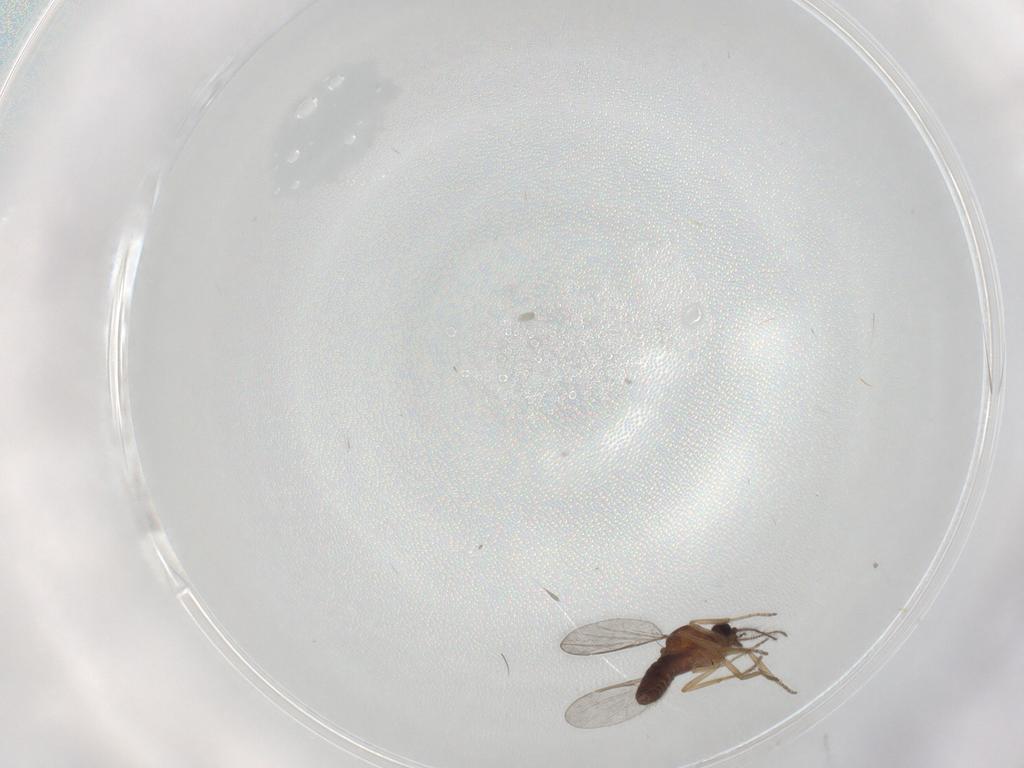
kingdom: Animalia
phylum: Arthropoda
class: Insecta
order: Diptera
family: Ceratopogonidae
